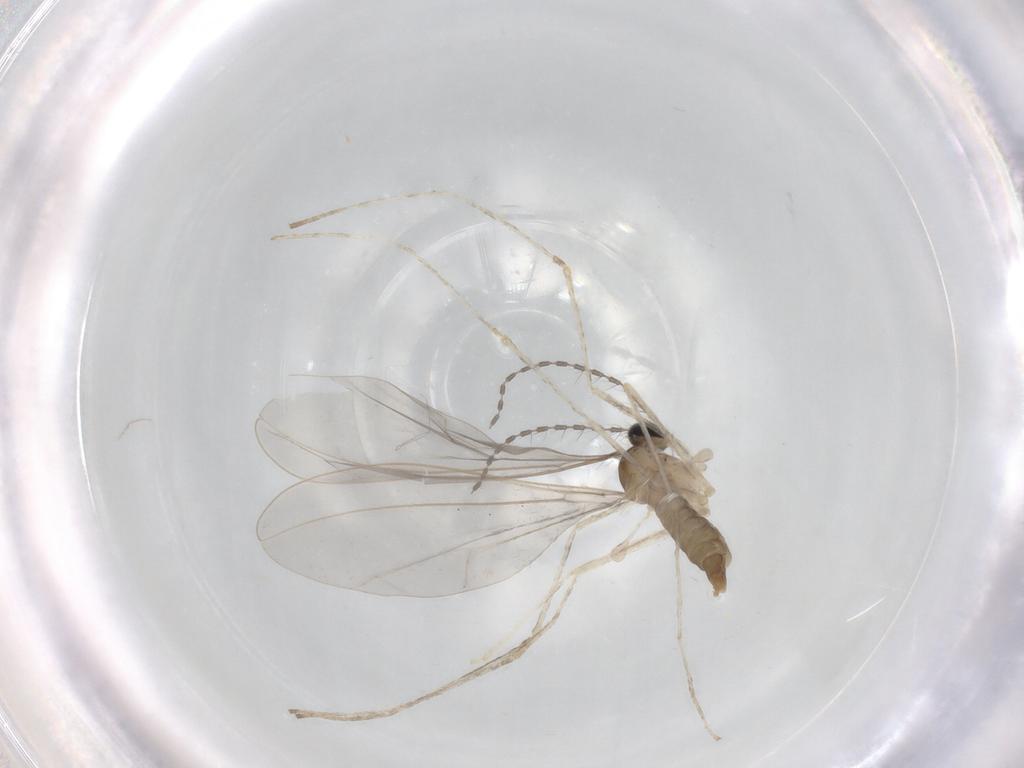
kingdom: Animalia
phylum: Arthropoda
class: Insecta
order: Diptera
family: Cecidomyiidae
